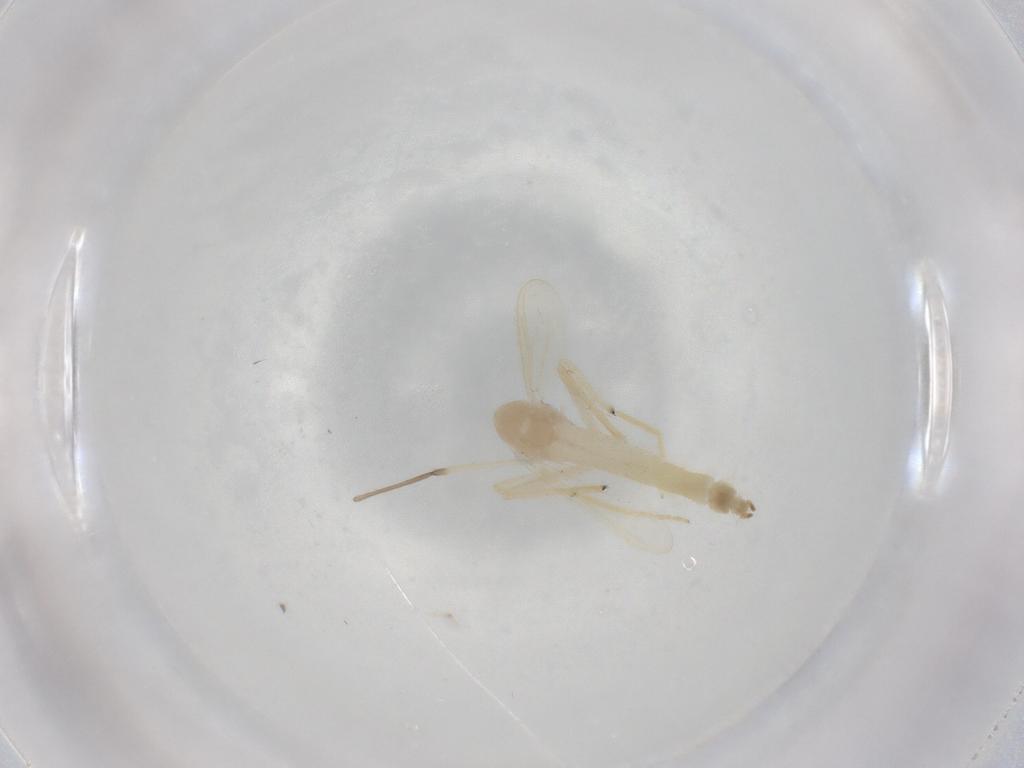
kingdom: Animalia
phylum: Arthropoda
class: Insecta
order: Diptera
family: Chironomidae
